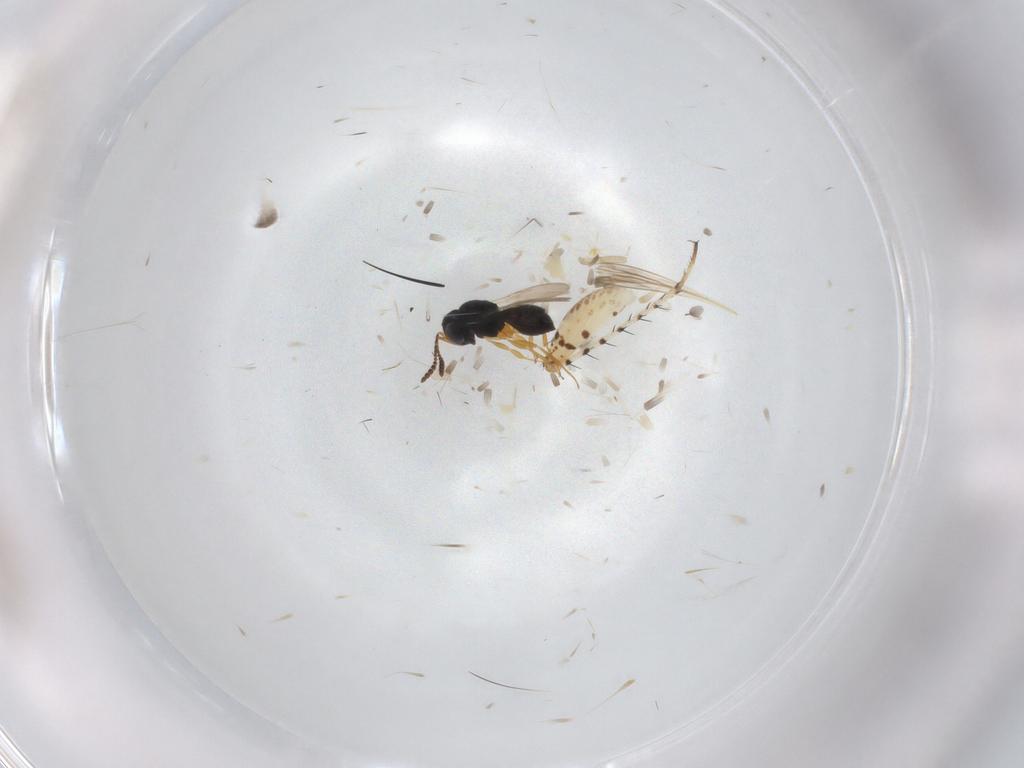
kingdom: Animalia
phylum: Arthropoda
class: Insecta
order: Hymenoptera
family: Scelionidae
